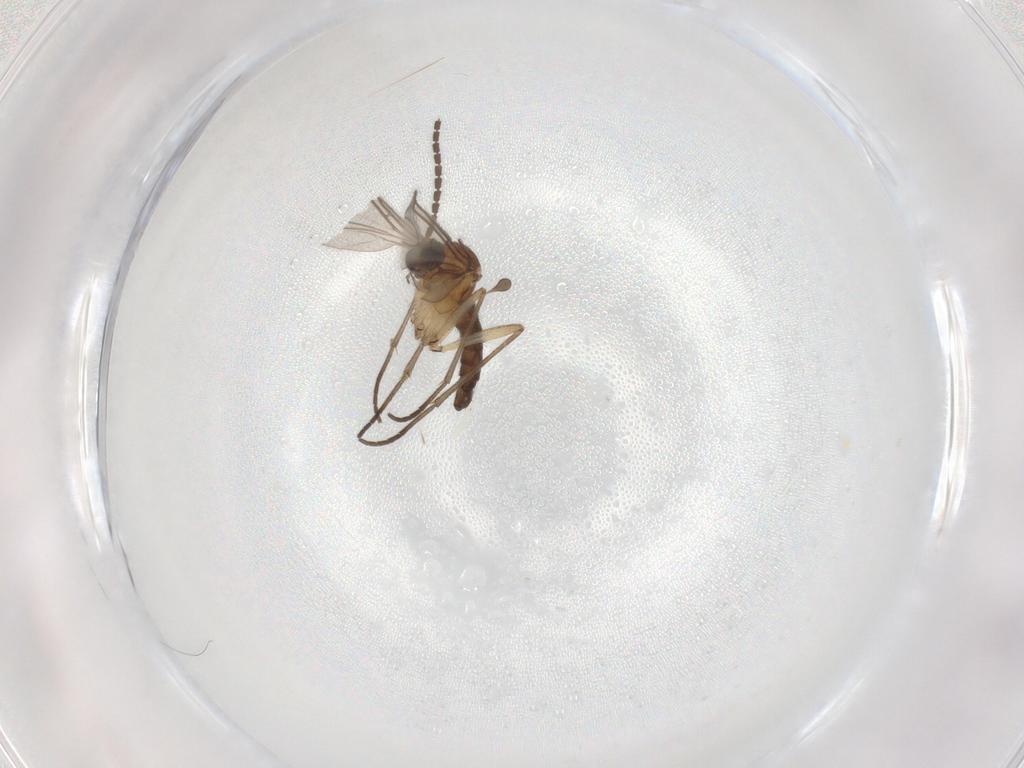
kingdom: Animalia
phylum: Arthropoda
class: Insecta
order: Diptera
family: Sciaridae
